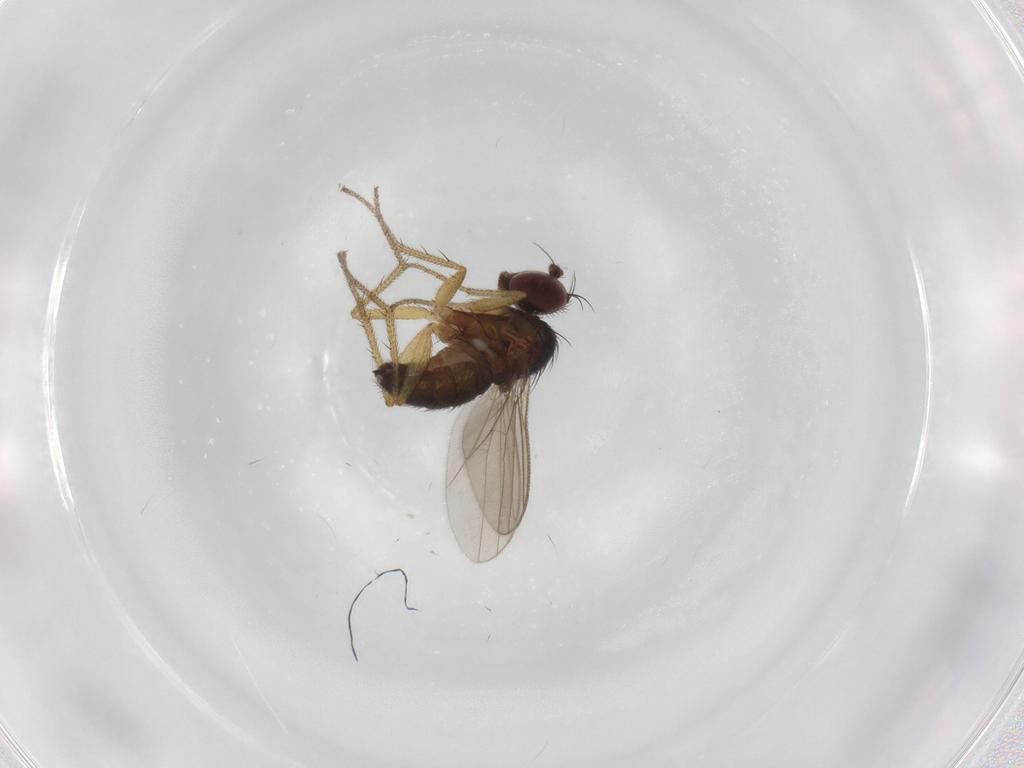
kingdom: Animalia
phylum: Arthropoda
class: Insecta
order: Diptera
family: Dolichopodidae
